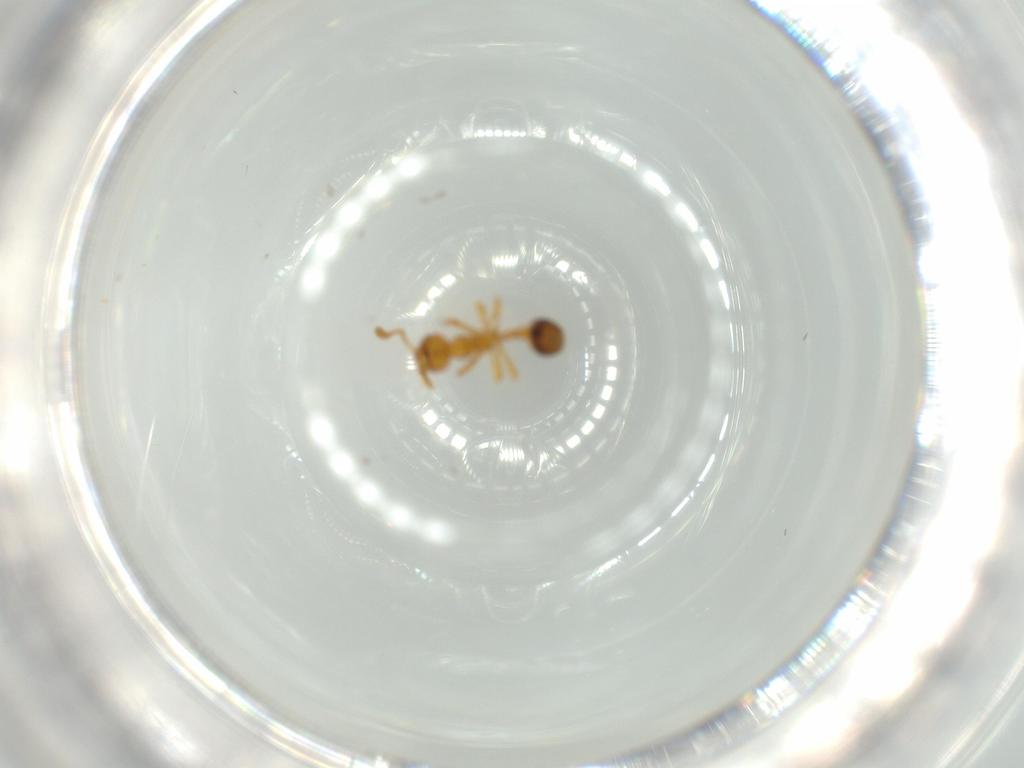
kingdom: Animalia
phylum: Arthropoda
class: Insecta
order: Hymenoptera
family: Formicidae
